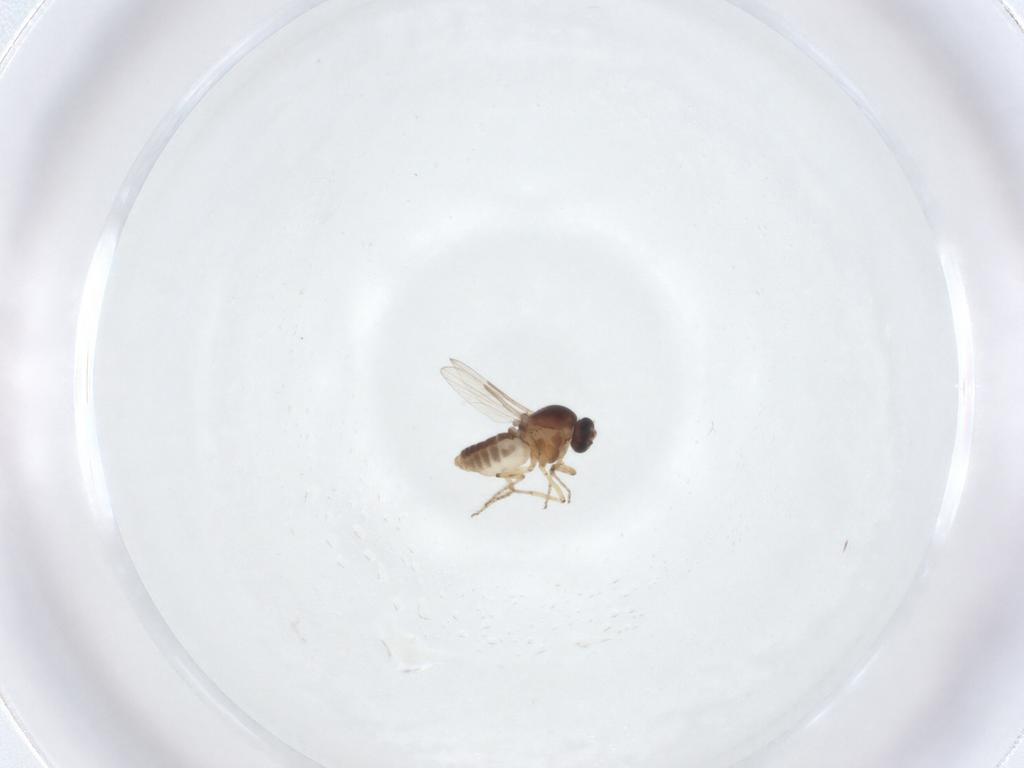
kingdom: Animalia
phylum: Arthropoda
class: Insecta
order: Diptera
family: Ceratopogonidae
